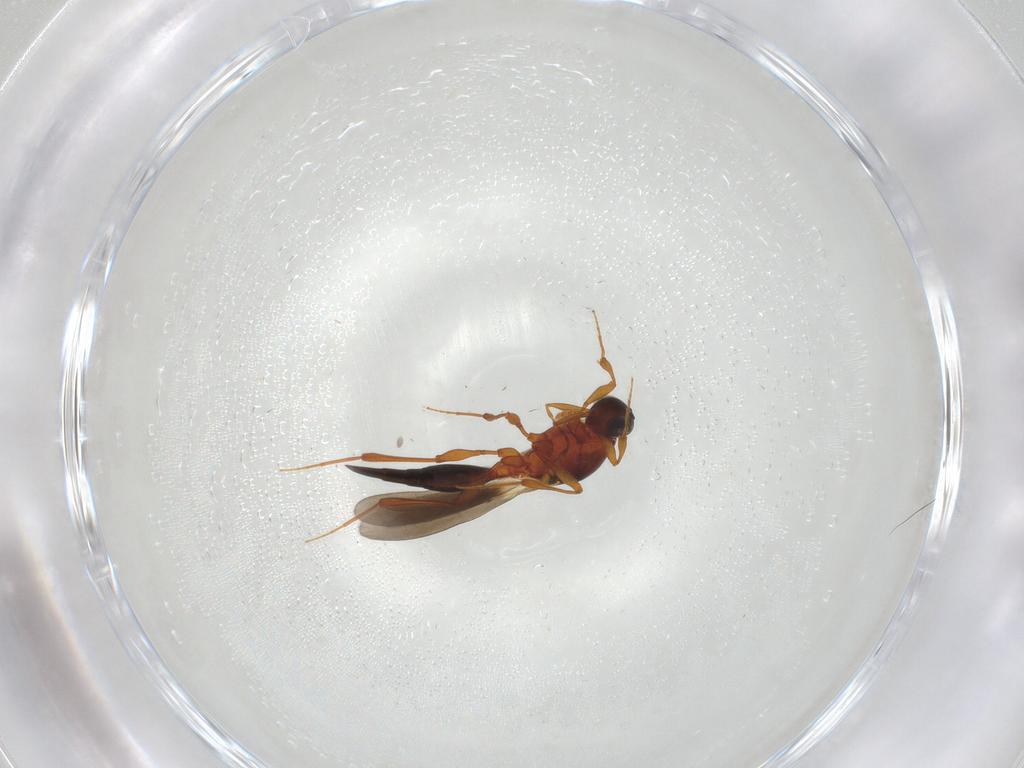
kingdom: Animalia
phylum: Arthropoda
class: Insecta
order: Hymenoptera
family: Platygastridae
